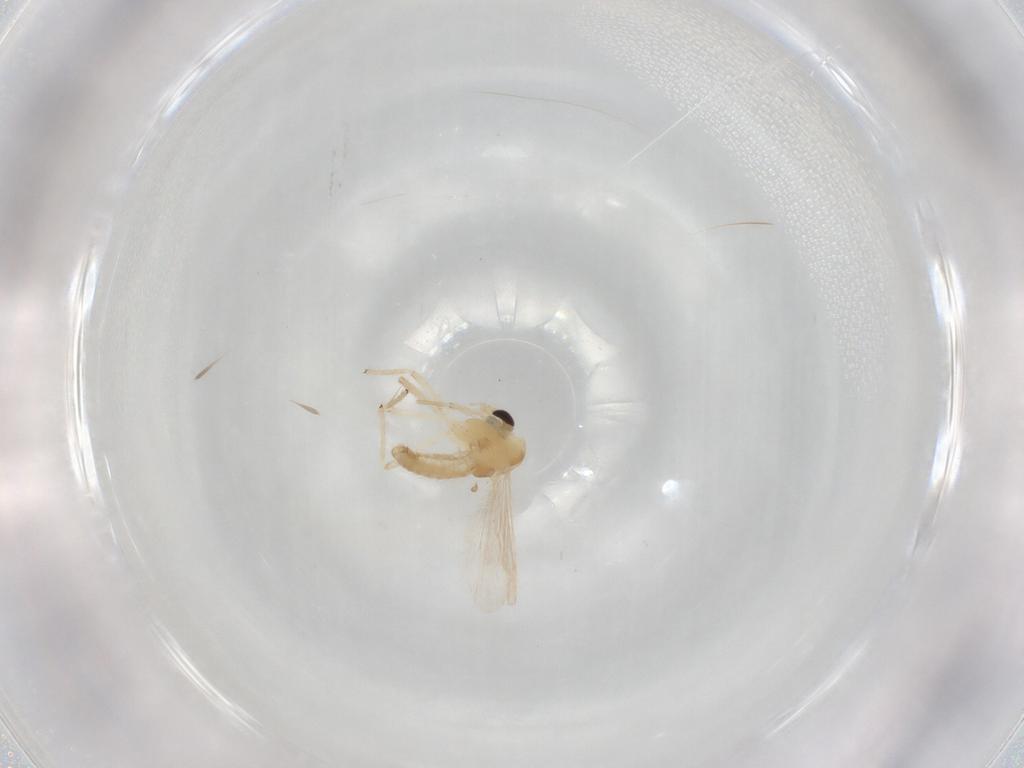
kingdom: Animalia
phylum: Arthropoda
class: Insecta
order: Diptera
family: Chironomidae
